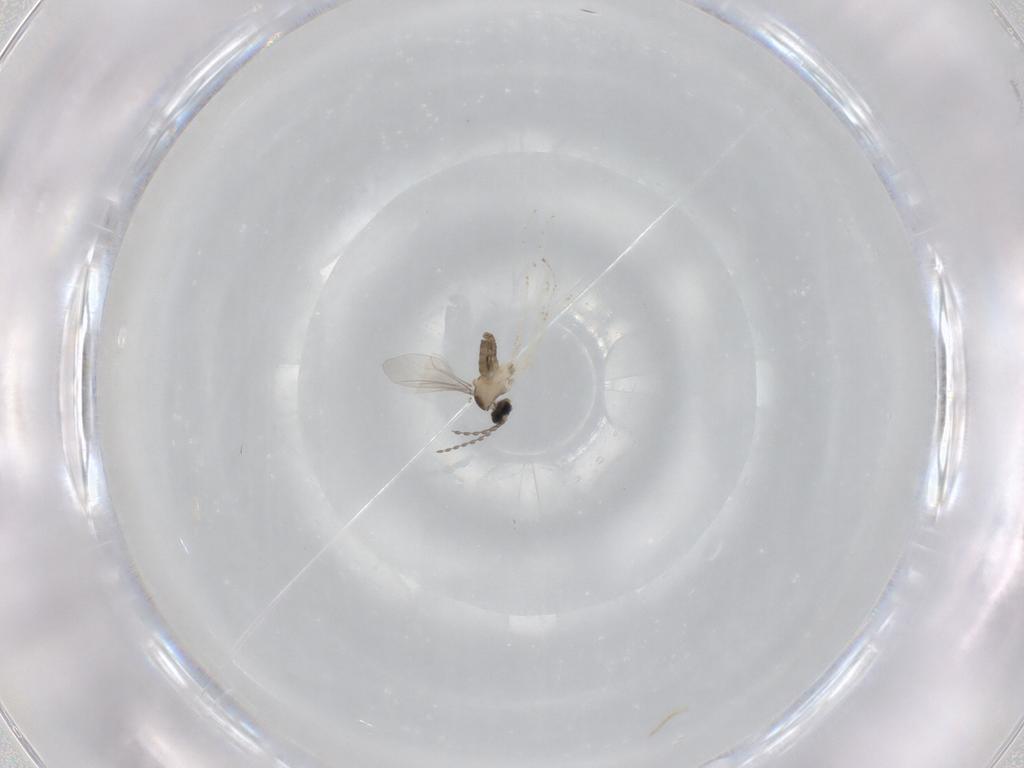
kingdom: Animalia
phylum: Arthropoda
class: Insecta
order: Diptera
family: Cecidomyiidae
